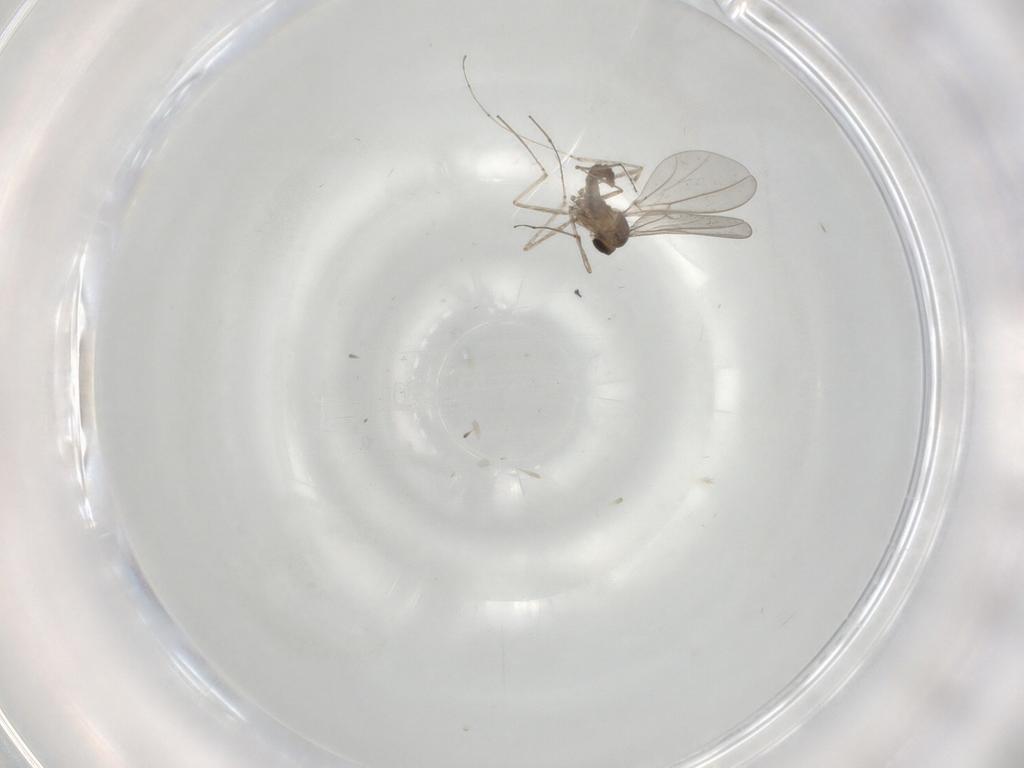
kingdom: Animalia
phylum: Arthropoda
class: Insecta
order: Diptera
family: Cecidomyiidae
